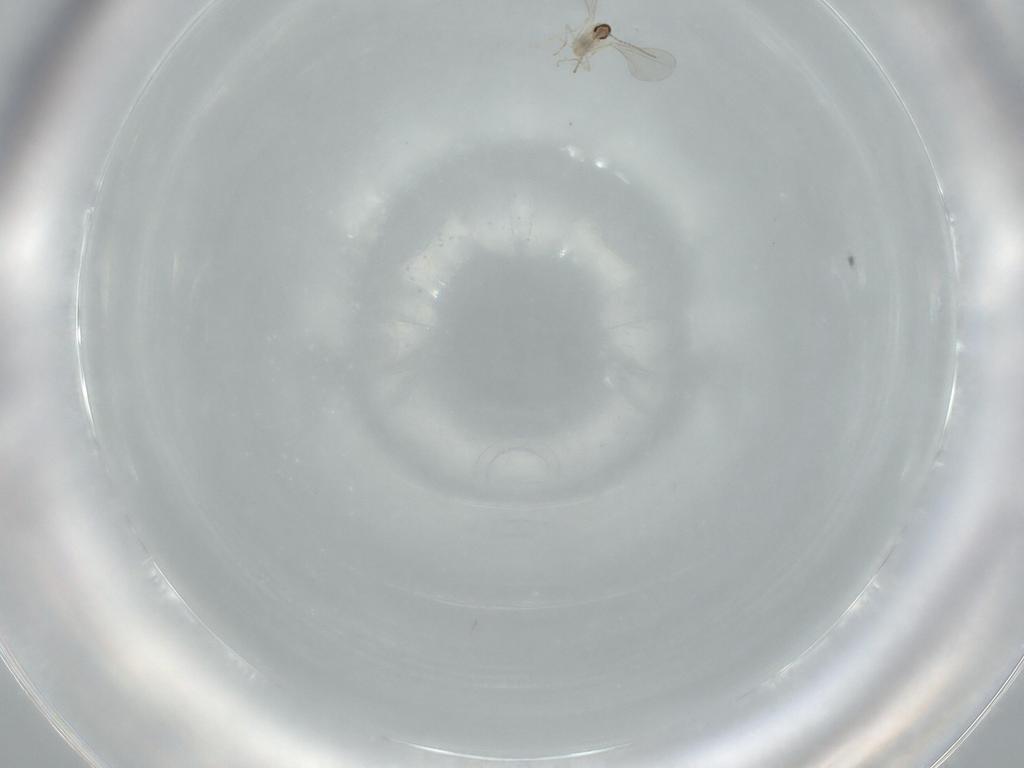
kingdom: Animalia
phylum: Arthropoda
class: Insecta
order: Diptera
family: Cecidomyiidae
